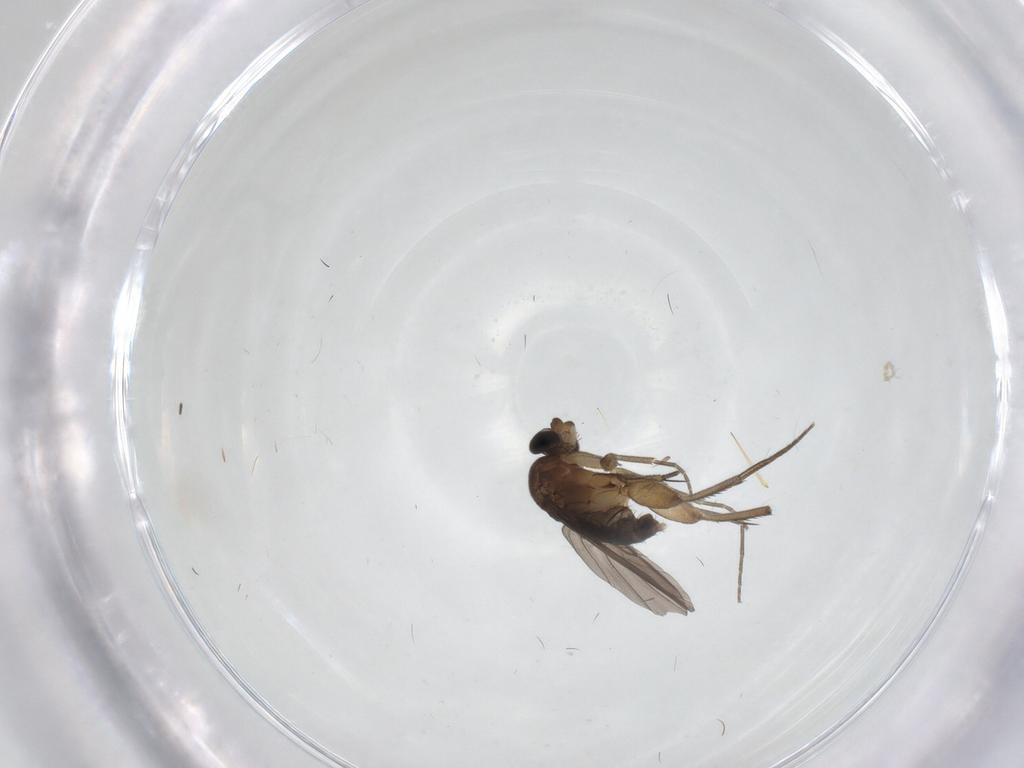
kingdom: Animalia
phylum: Arthropoda
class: Insecta
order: Diptera
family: Phoridae
